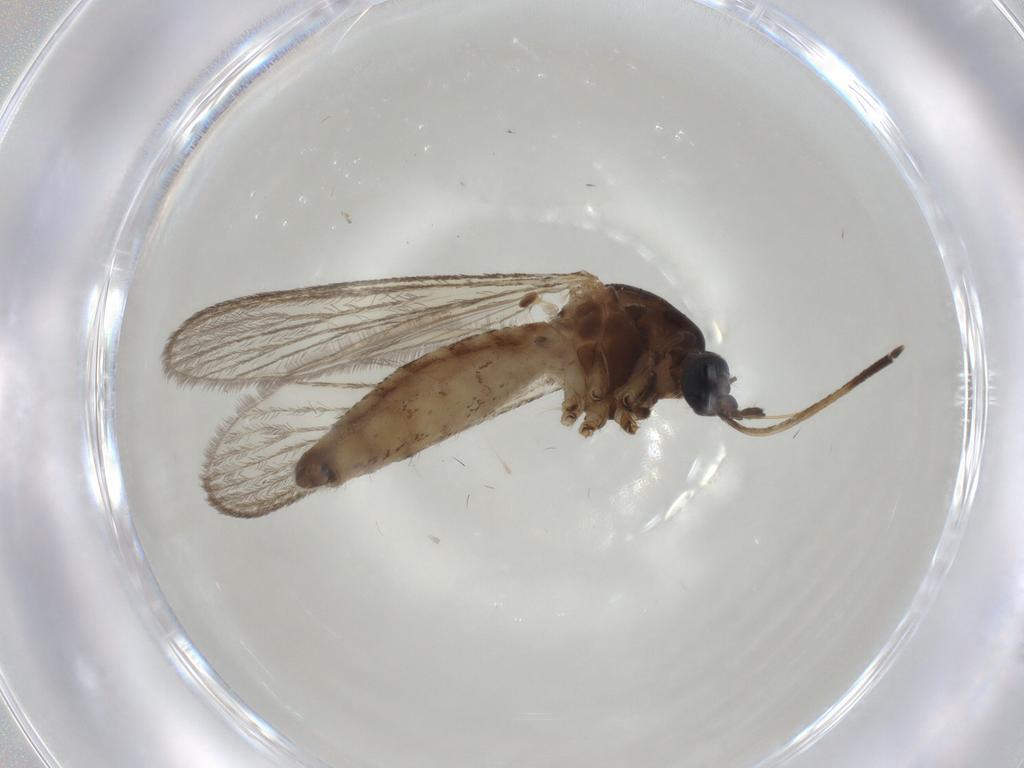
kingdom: Animalia
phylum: Arthropoda
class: Insecta
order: Diptera
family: Ceratopogonidae
